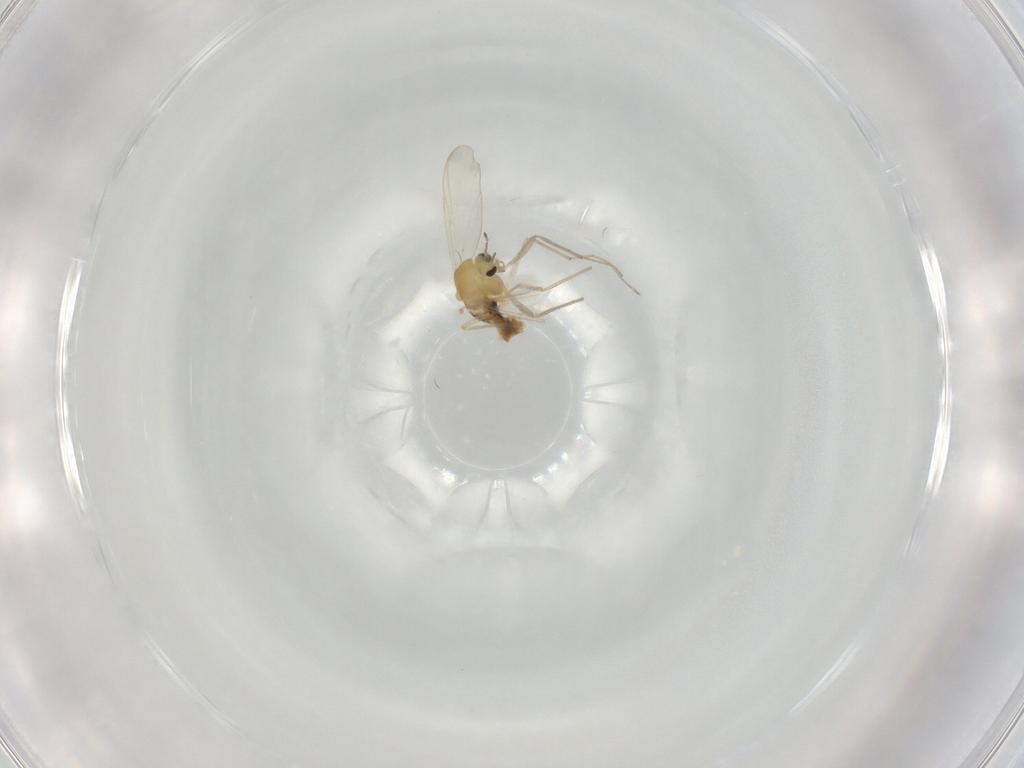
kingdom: Animalia
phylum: Arthropoda
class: Insecta
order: Diptera
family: Chironomidae
